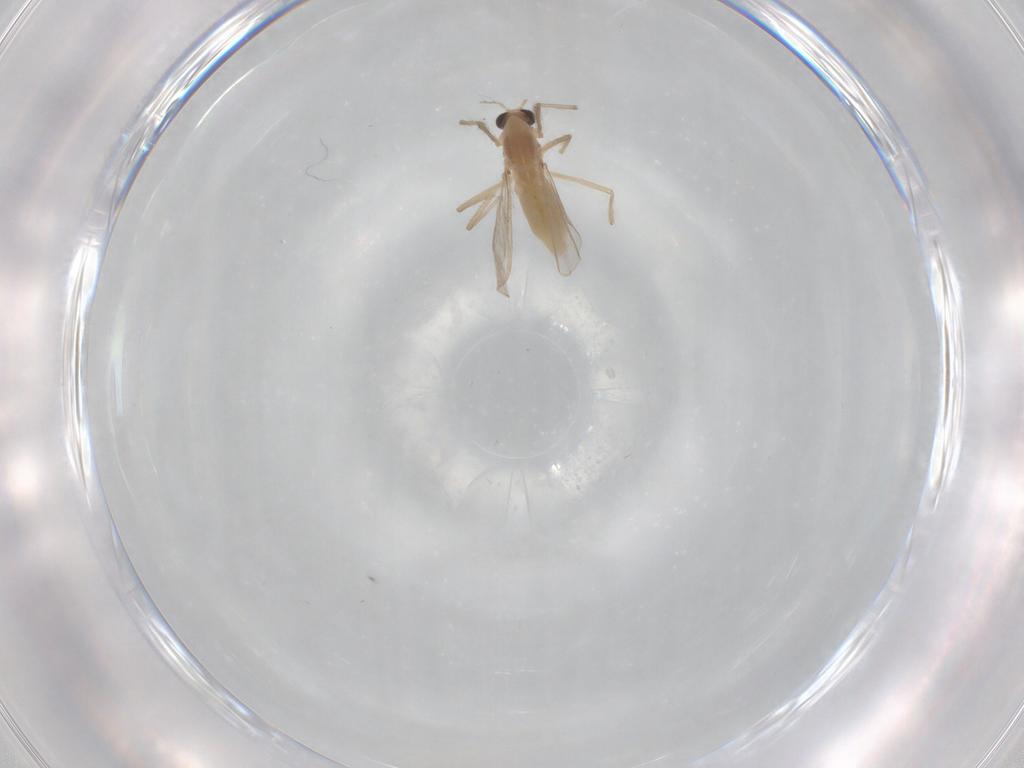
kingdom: Animalia
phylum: Arthropoda
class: Insecta
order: Diptera
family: Chironomidae
